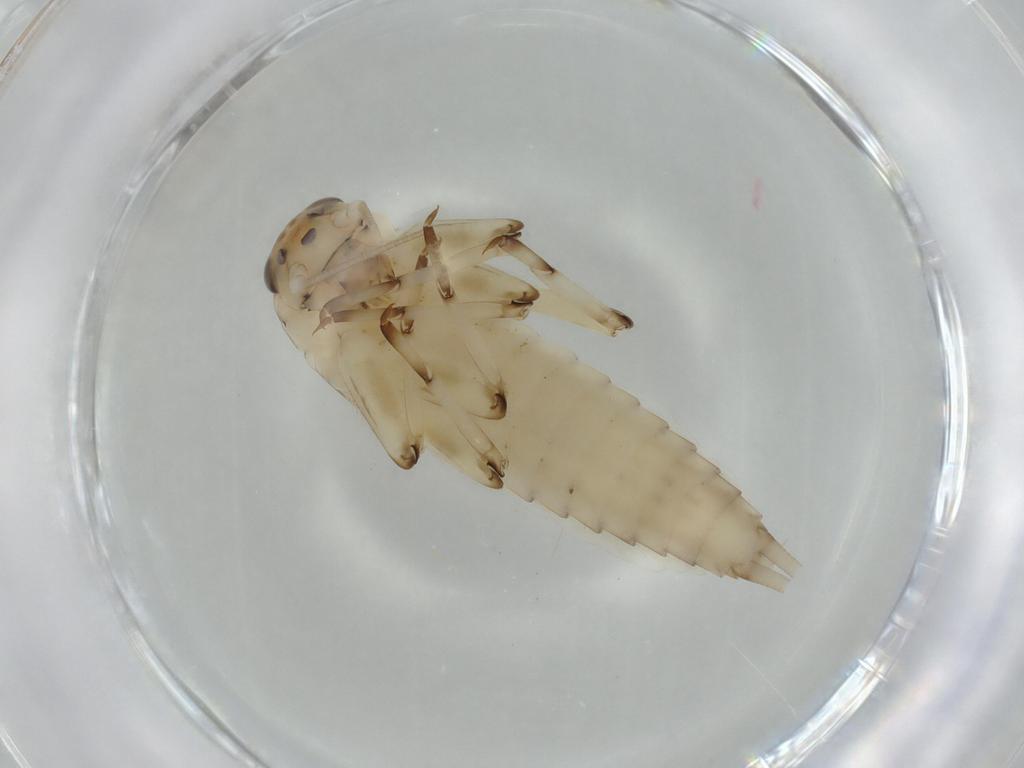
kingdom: Animalia
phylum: Arthropoda
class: Insecta
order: Ephemeroptera
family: Baetidae
